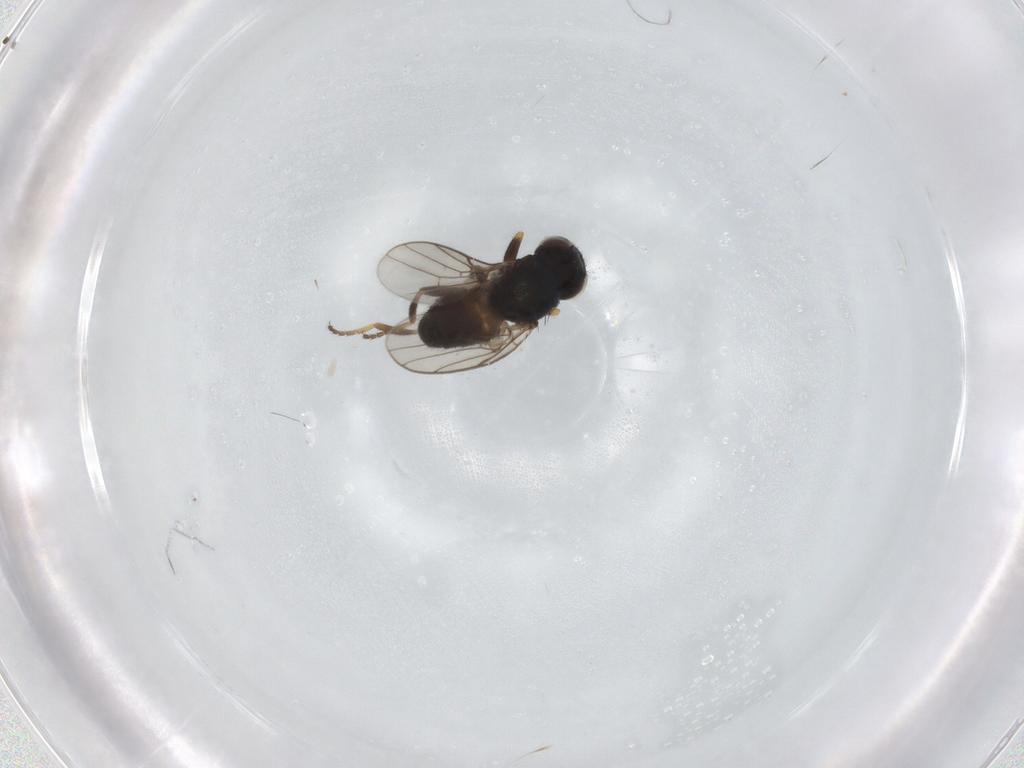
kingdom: Animalia
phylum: Arthropoda
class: Insecta
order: Diptera
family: Chloropidae
